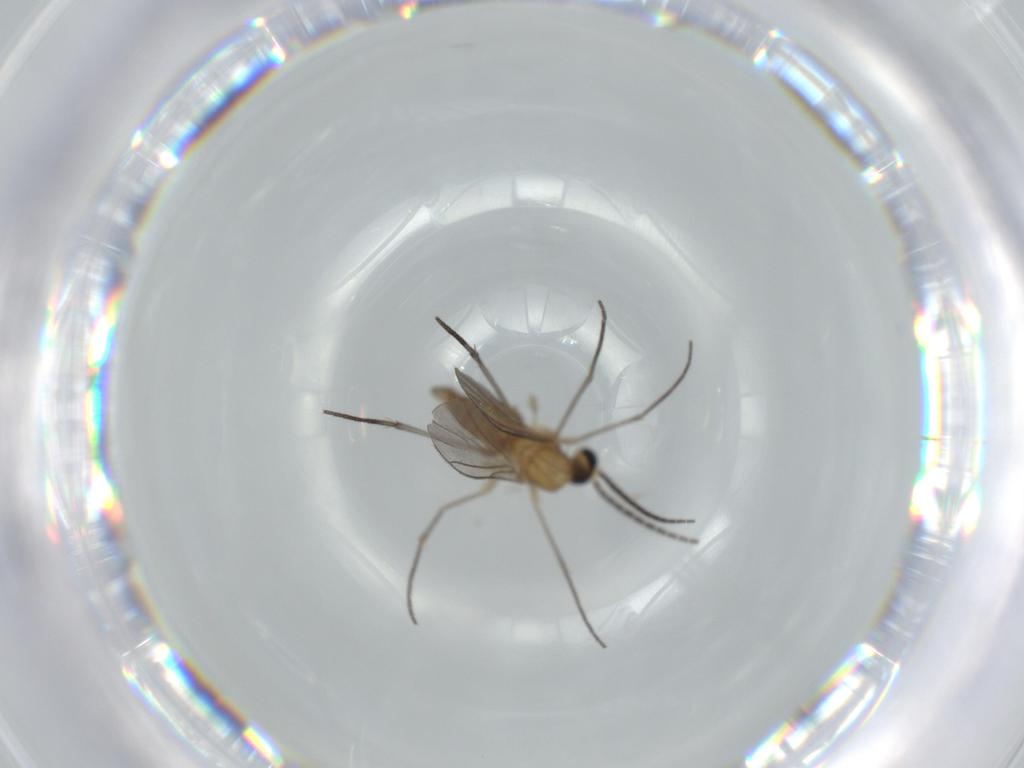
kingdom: Animalia
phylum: Arthropoda
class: Insecta
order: Diptera
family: Sciaridae
